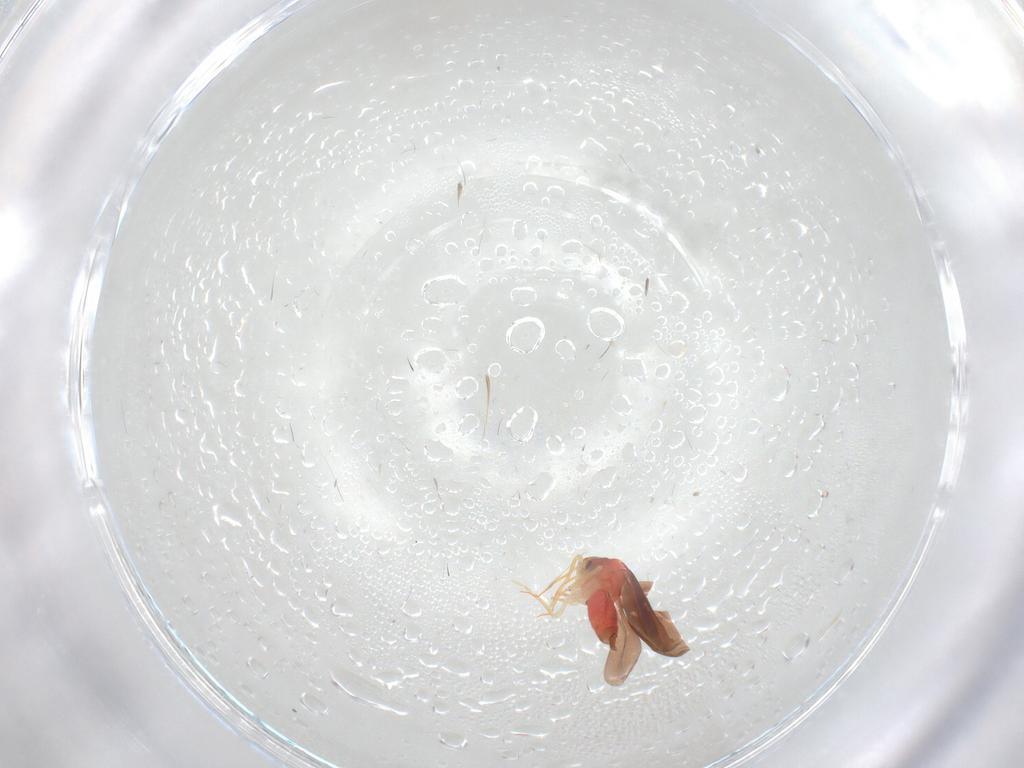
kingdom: Animalia
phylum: Arthropoda
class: Insecta
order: Hemiptera
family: Aleyrodidae
